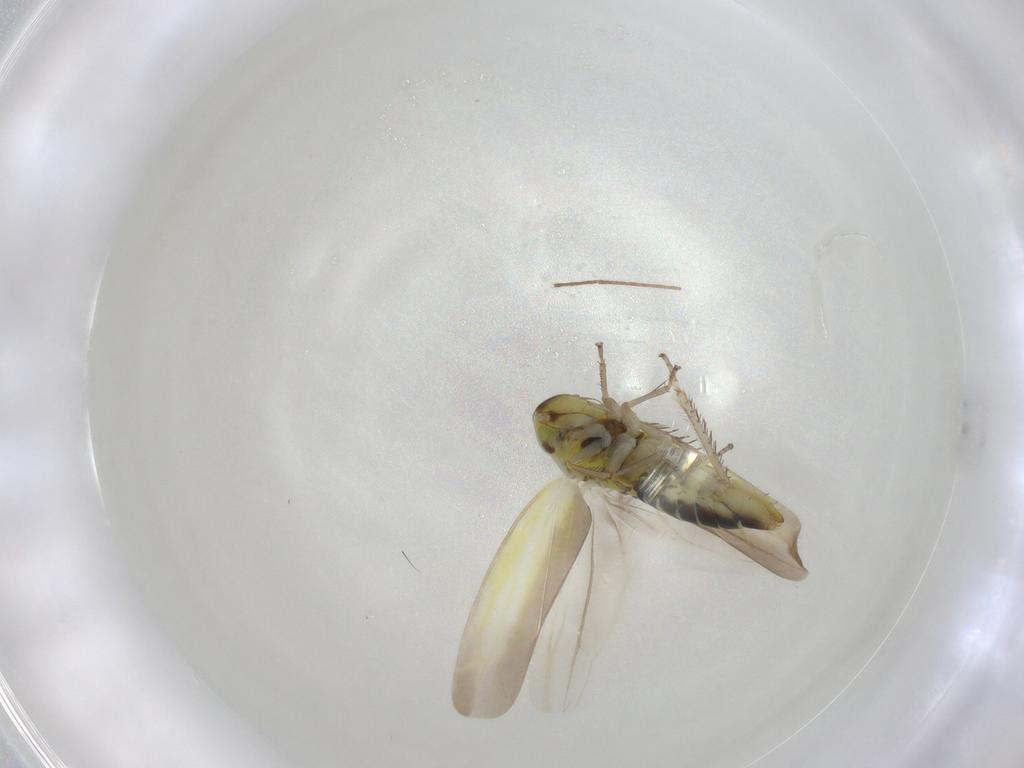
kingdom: Animalia
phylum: Arthropoda
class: Insecta
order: Hemiptera
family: Cicadellidae
